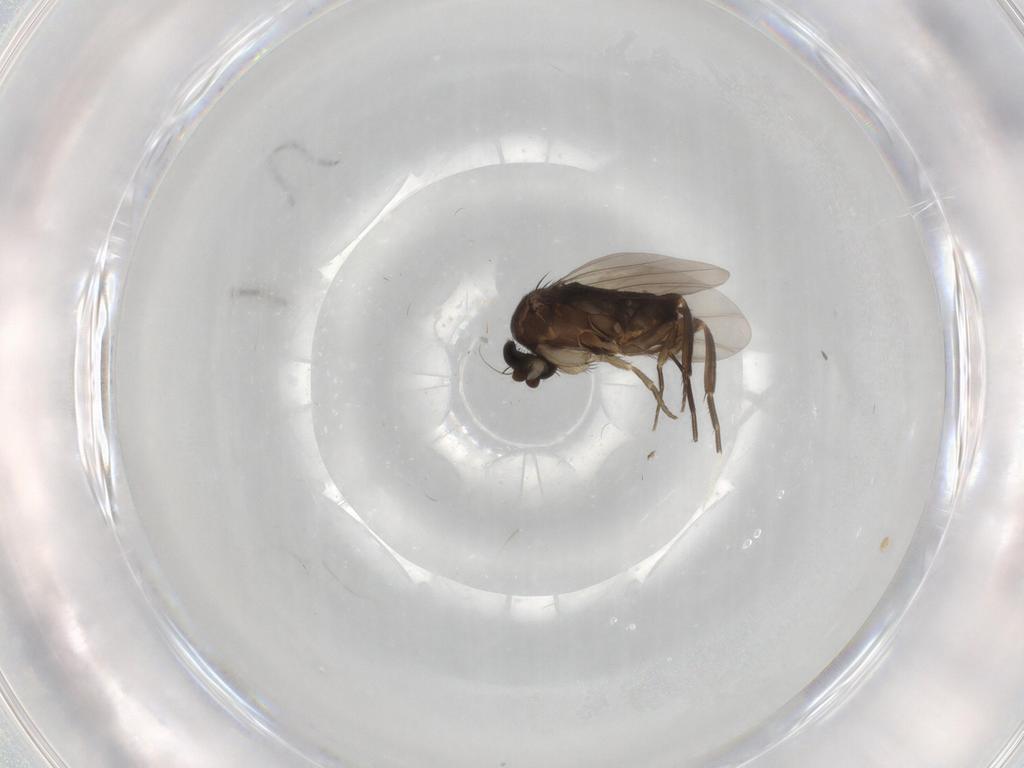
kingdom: Animalia
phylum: Arthropoda
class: Insecta
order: Diptera
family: Phoridae
